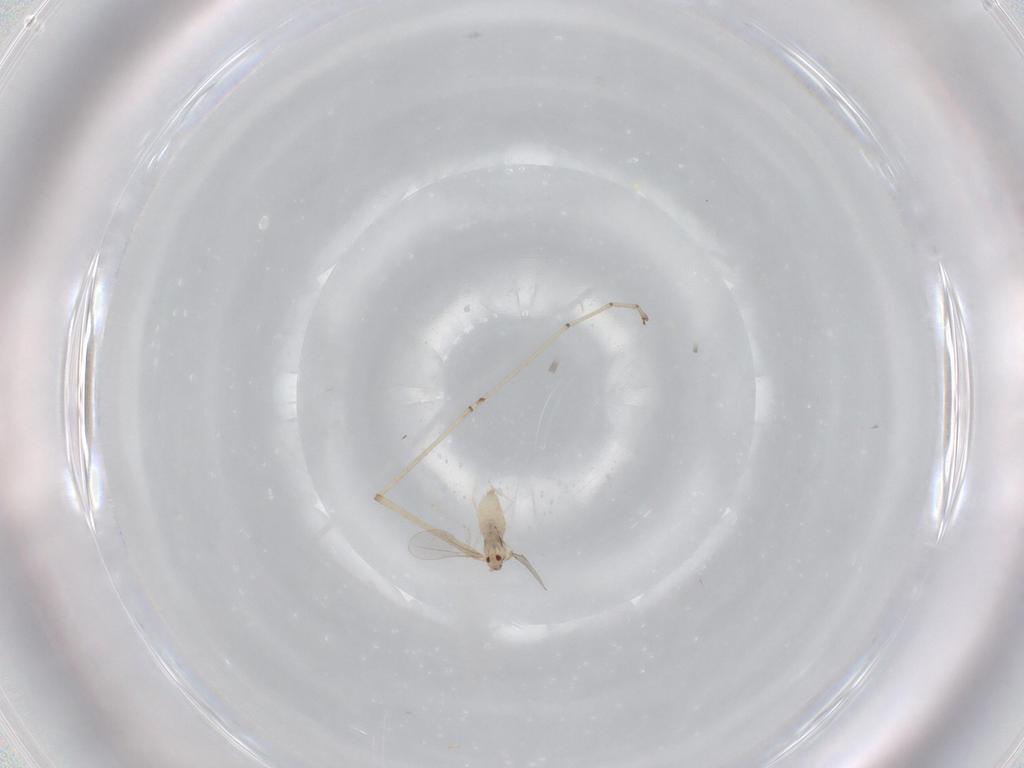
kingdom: Animalia
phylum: Arthropoda
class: Insecta
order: Diptera
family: Cecidomyiidae
